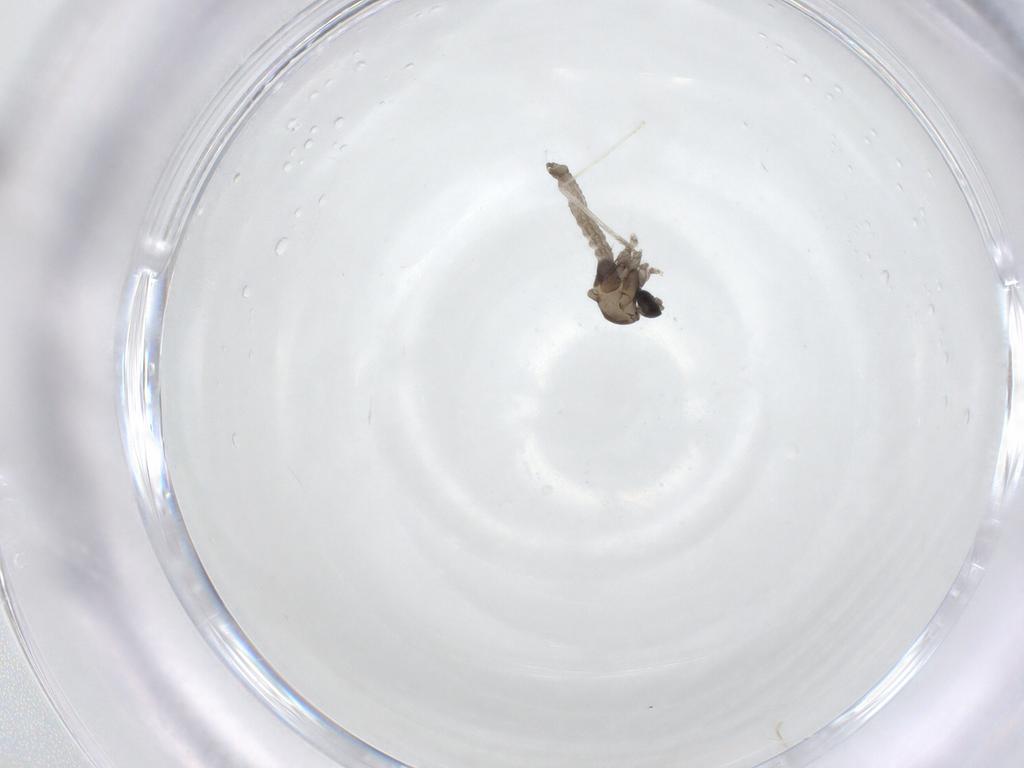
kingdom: Animalia
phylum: Arthropoda
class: Insecta
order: Diptera
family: Cecidomyiidae
